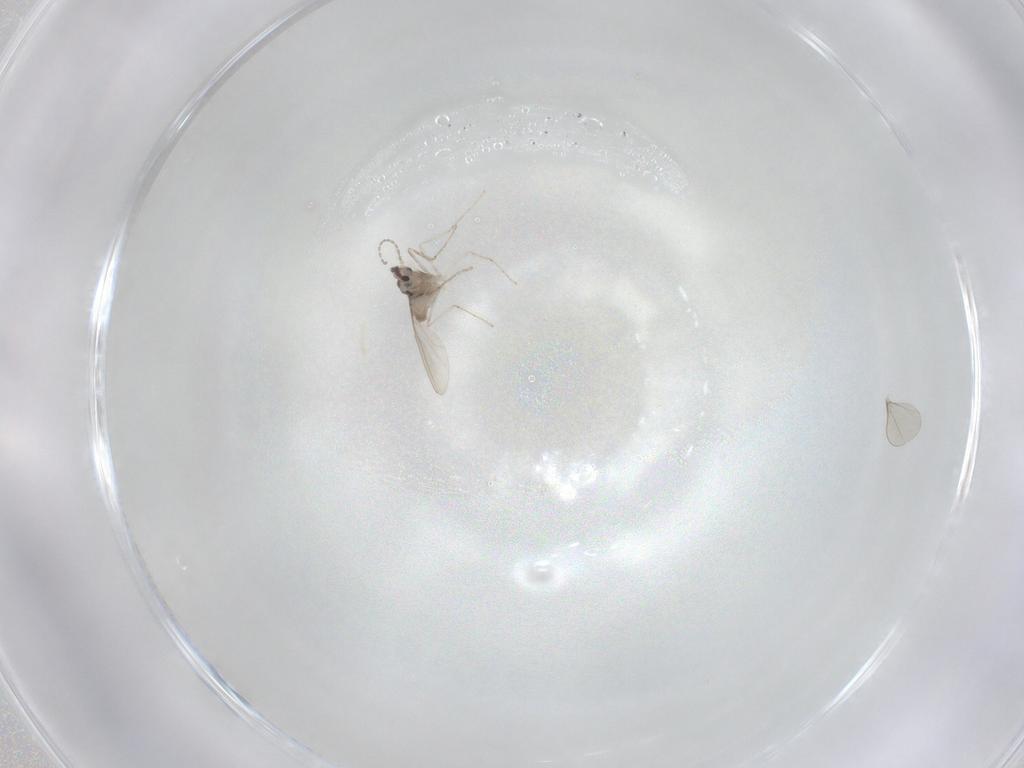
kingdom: Animalia
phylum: Arthropoda
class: Insecta
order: Diptera
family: Cecidomyiidae
